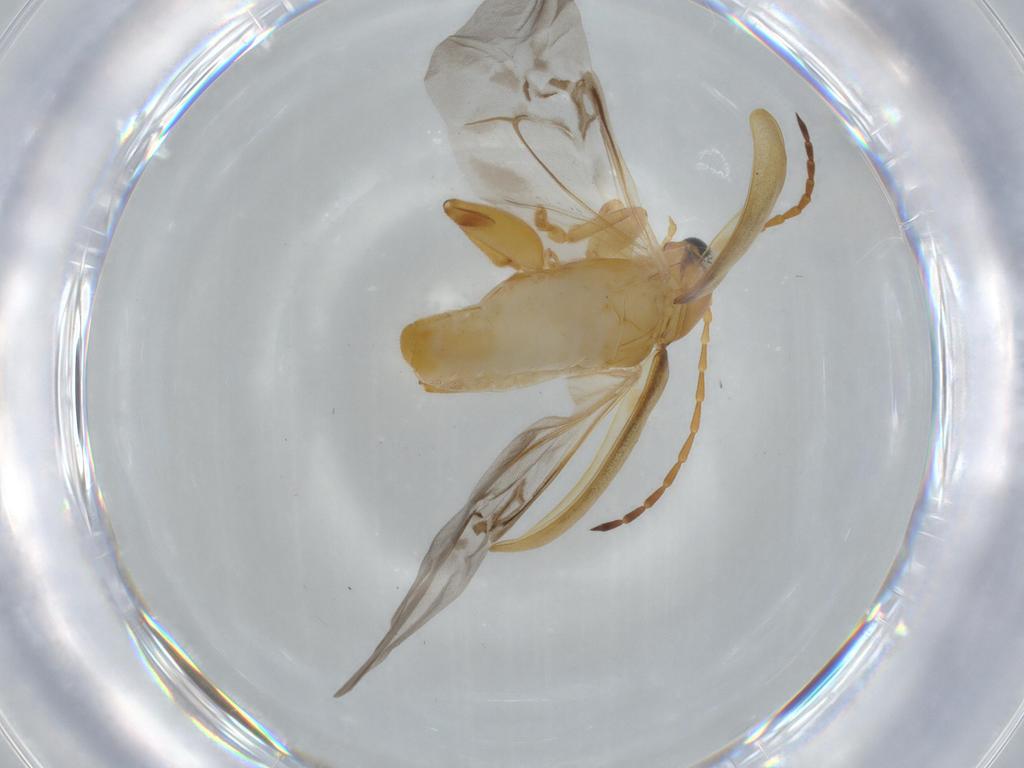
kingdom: Animalia
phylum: Arthropoda
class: Insecta
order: Coleoptera
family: Chrysomelidae
